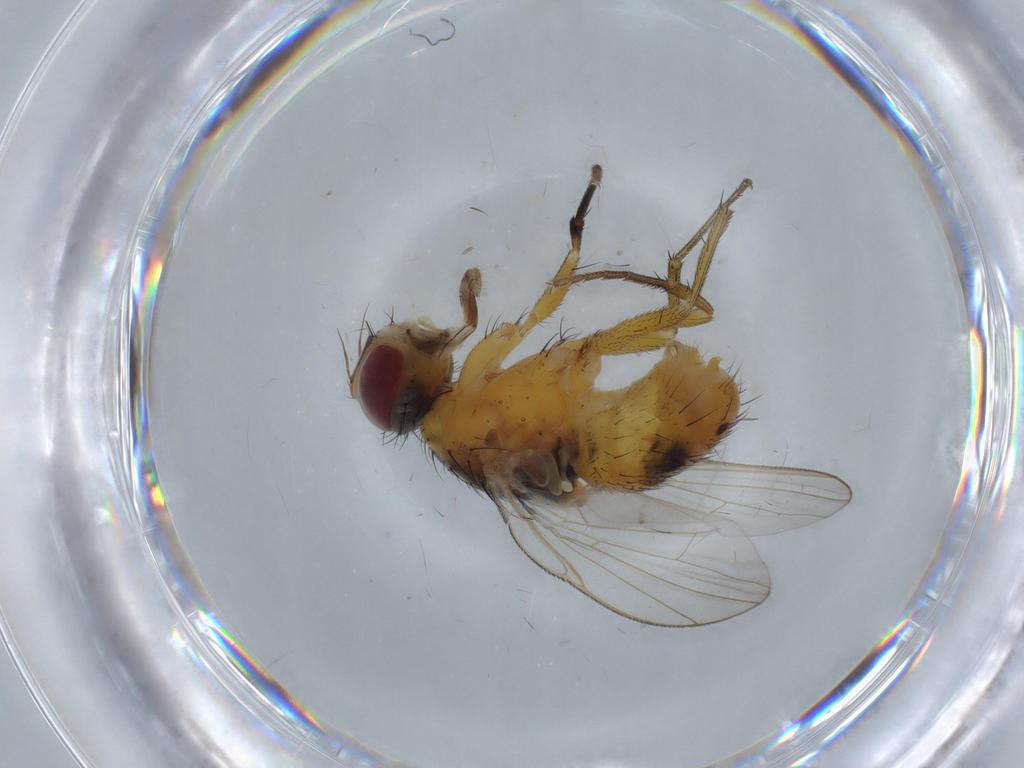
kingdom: Animalia
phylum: Arthropoda
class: Insecta
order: Diptera
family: Muscidae
